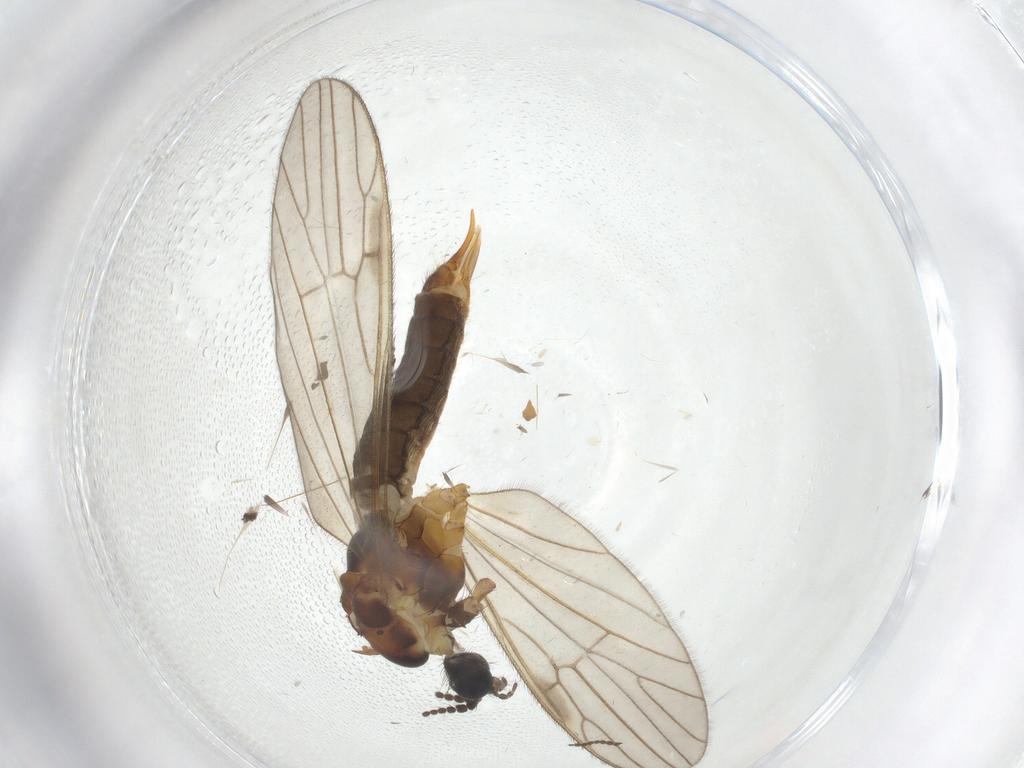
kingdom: Animalia
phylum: Arthropoda
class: Insecta
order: Diptera
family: Agromyzidae
